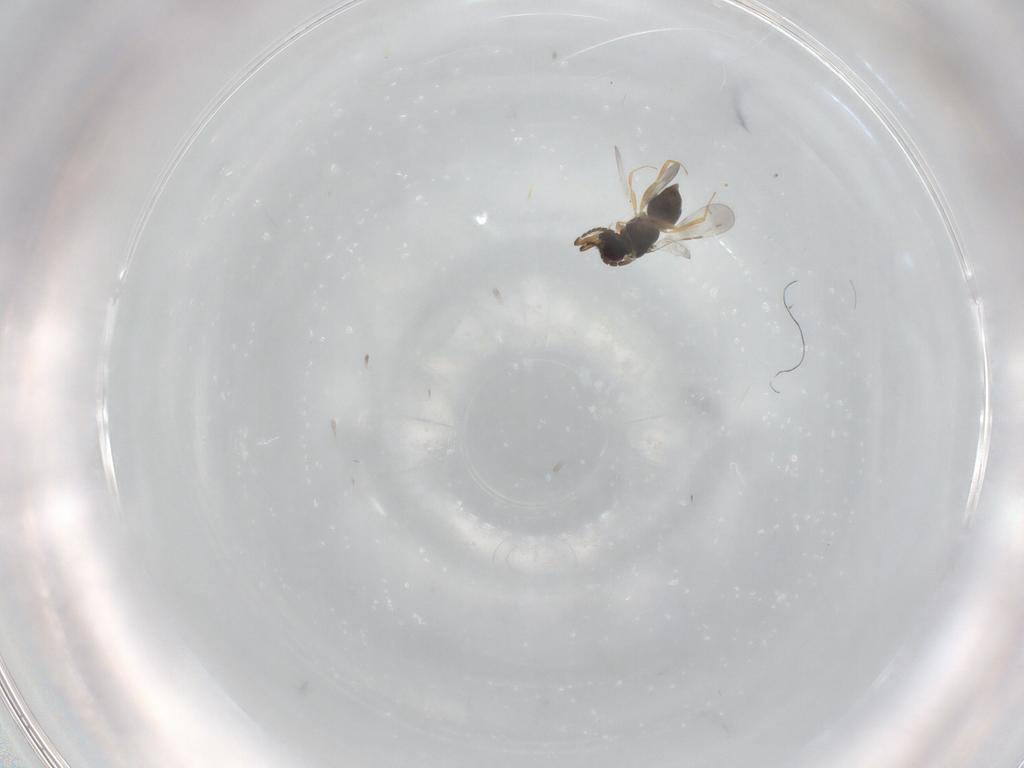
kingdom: Animalia
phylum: Arthropoda
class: Insecta
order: Hymenoptera
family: Ceraphronidae
